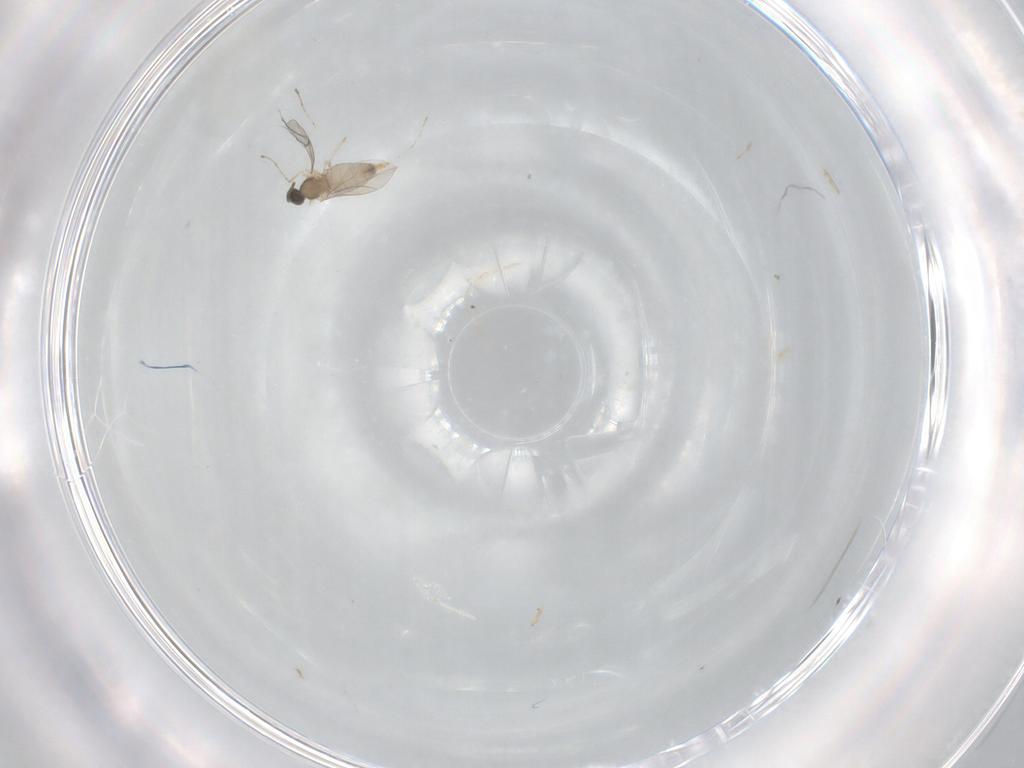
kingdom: Animalia
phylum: Arthropoda
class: Insecta
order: Diptera
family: Cecidomyiidae
